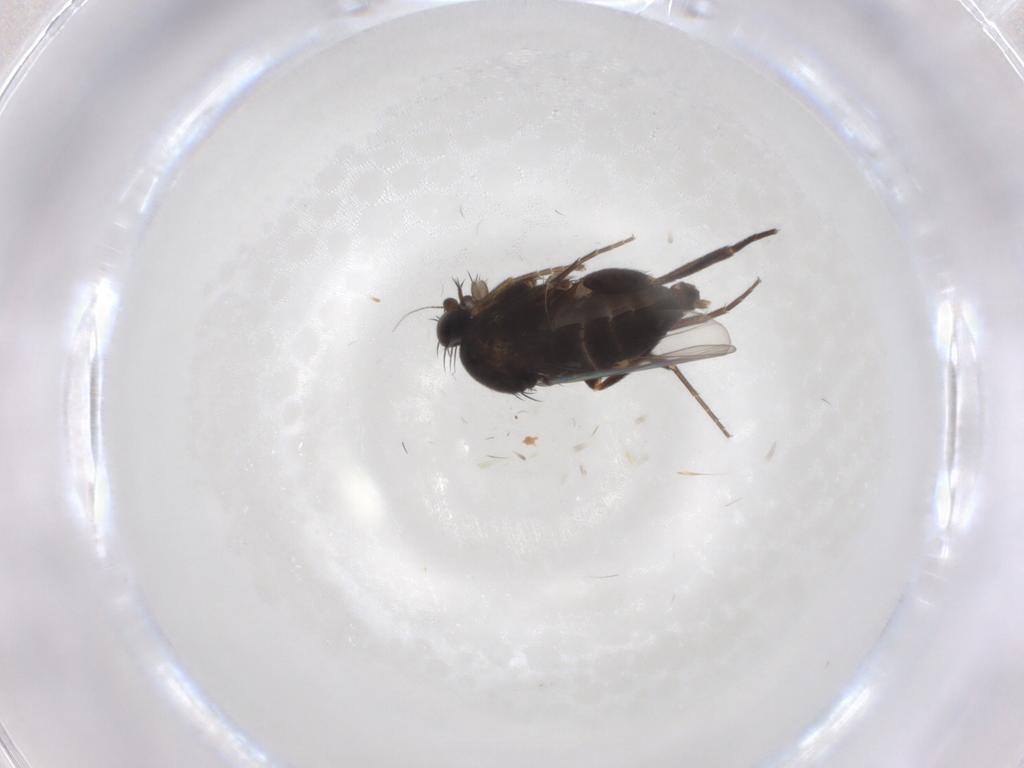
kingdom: Animalia
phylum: Arthropoda
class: Insecta
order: Diptera
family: Phoridae
